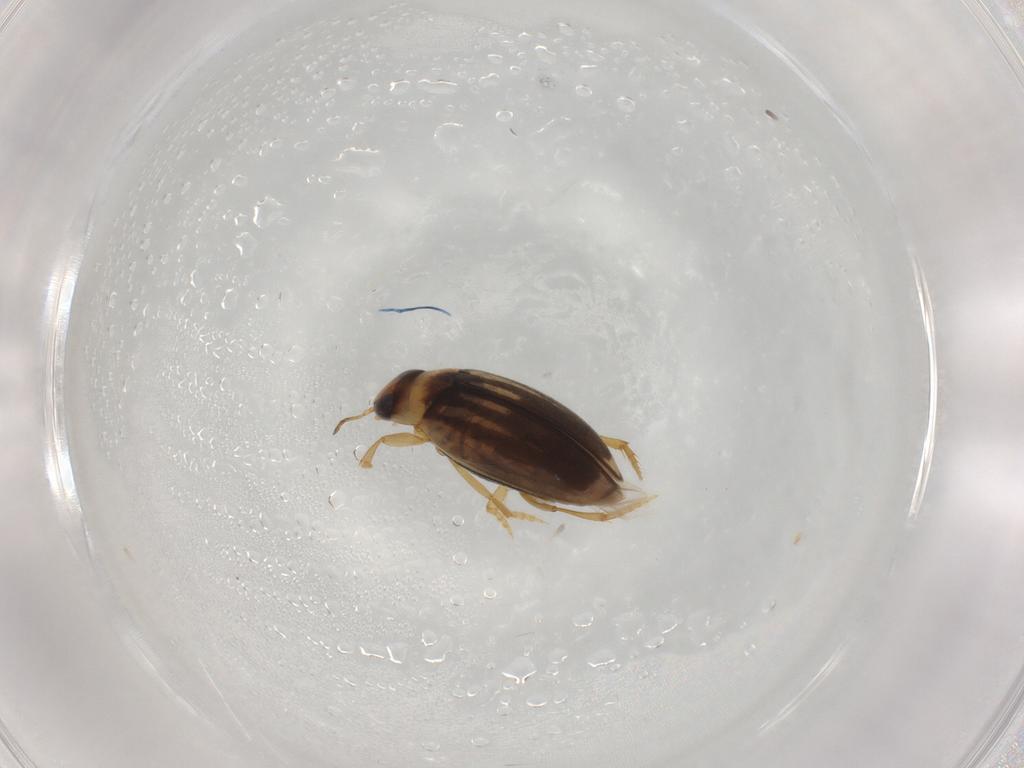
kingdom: Animalia
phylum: Arthropoda
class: Insecta
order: Coleoptera
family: Dytiscidae
